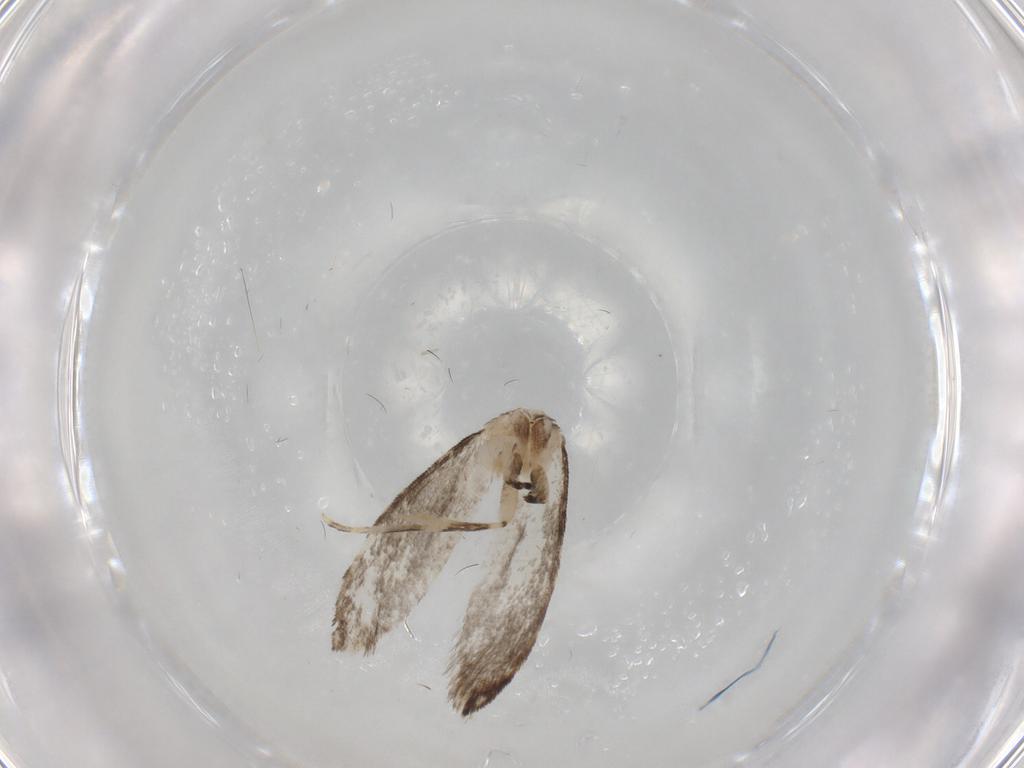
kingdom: Animalia
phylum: Arthropoda
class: Insecta
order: Lepidoptera
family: Tineidae
